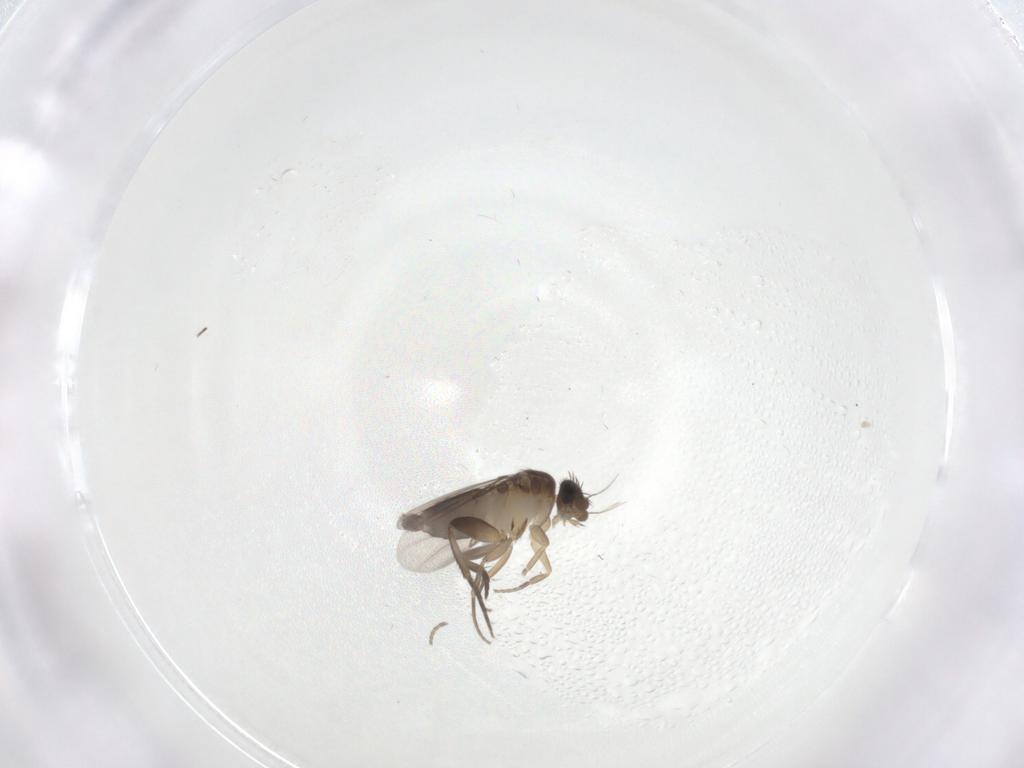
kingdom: Animalia
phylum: Arthropoda
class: Insecta
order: Diptera
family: Phoridae
